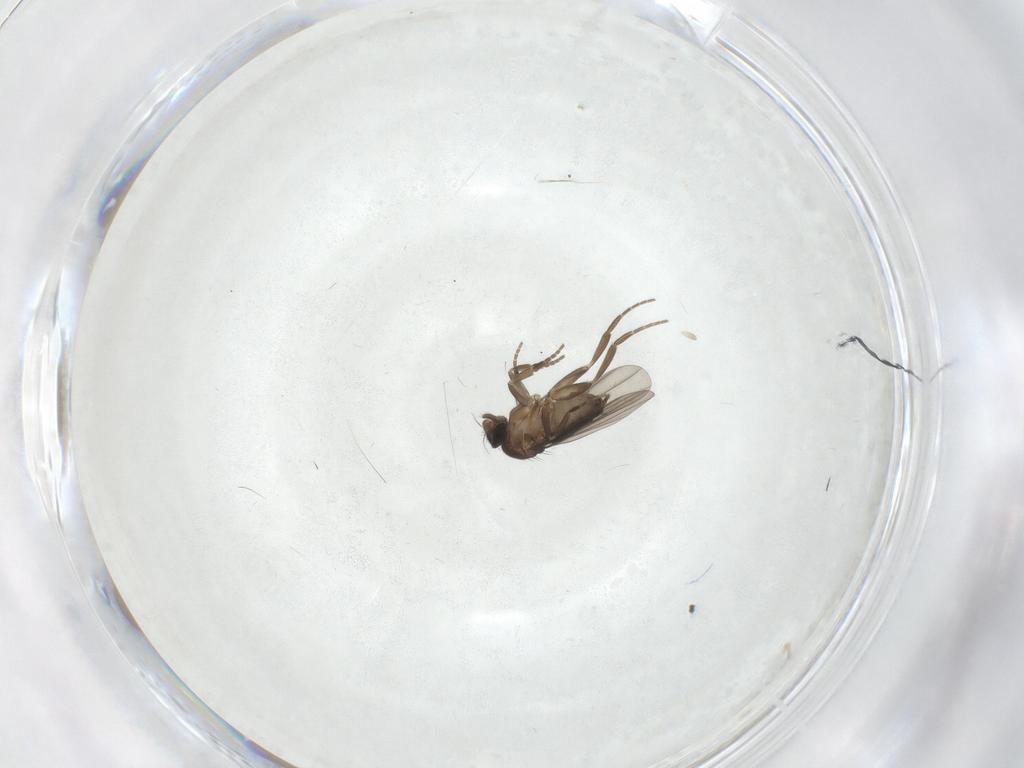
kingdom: Animalia
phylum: Arthropoda
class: Insecta
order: Diptera
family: Phoridae
